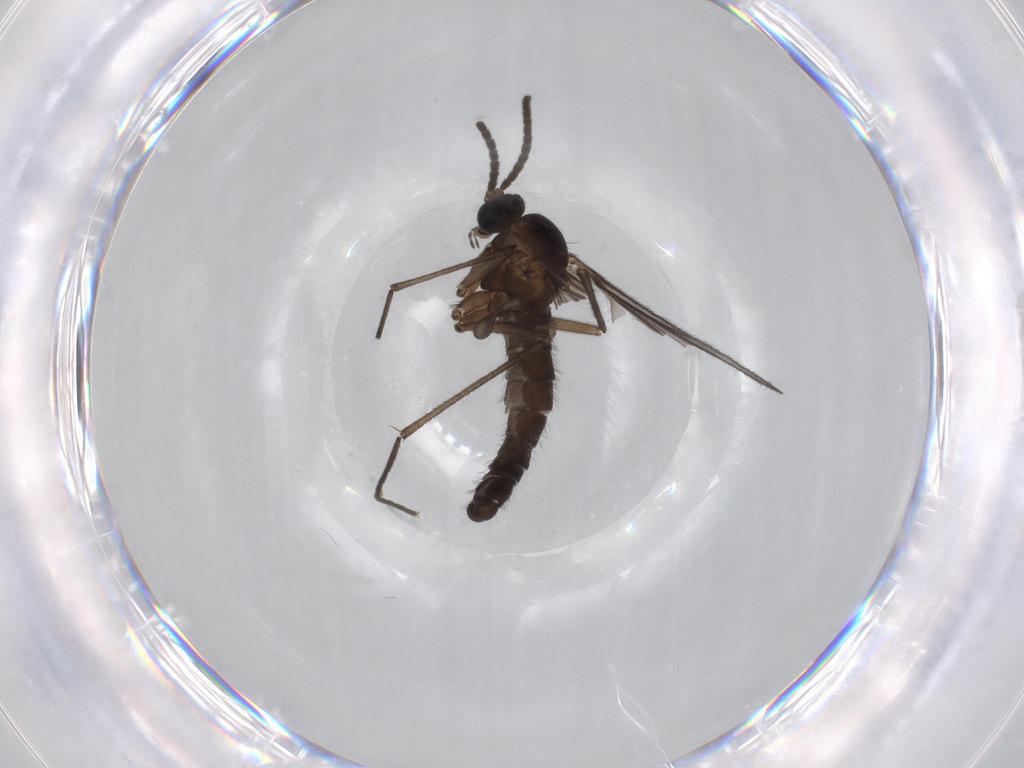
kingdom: Animalia
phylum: Arthropoda
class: Insecta
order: Diptera
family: Sciaridae
